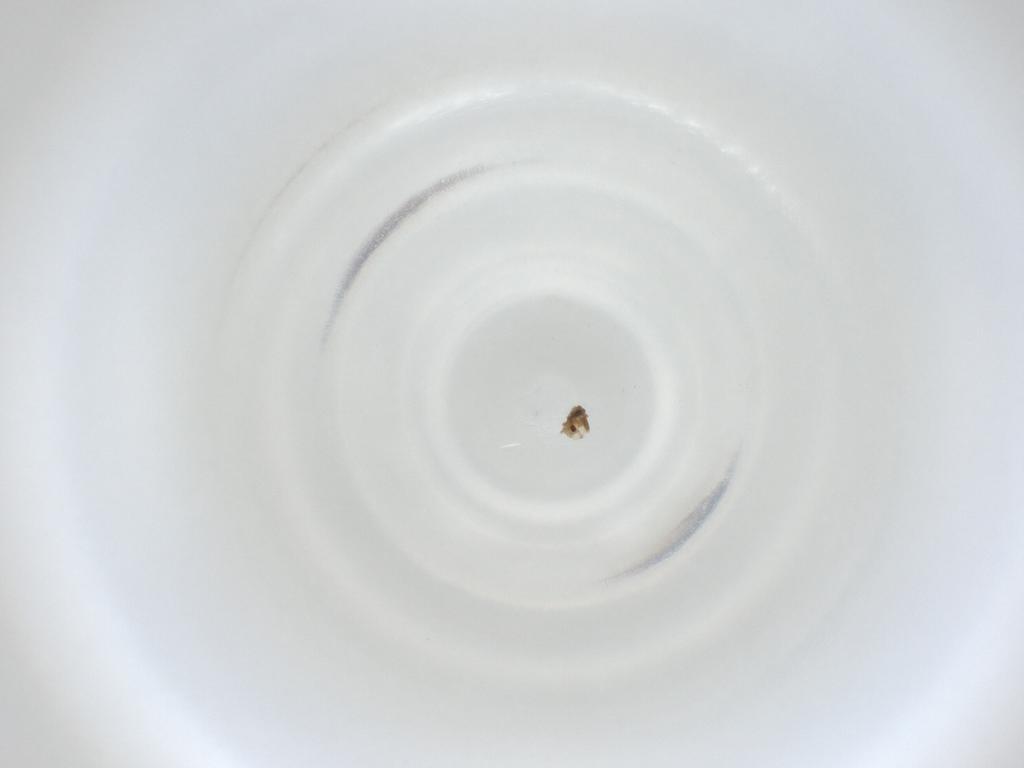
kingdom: Animalia
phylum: Arthropoda
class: Insecta
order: Diptera
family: Cecidomyiidae
